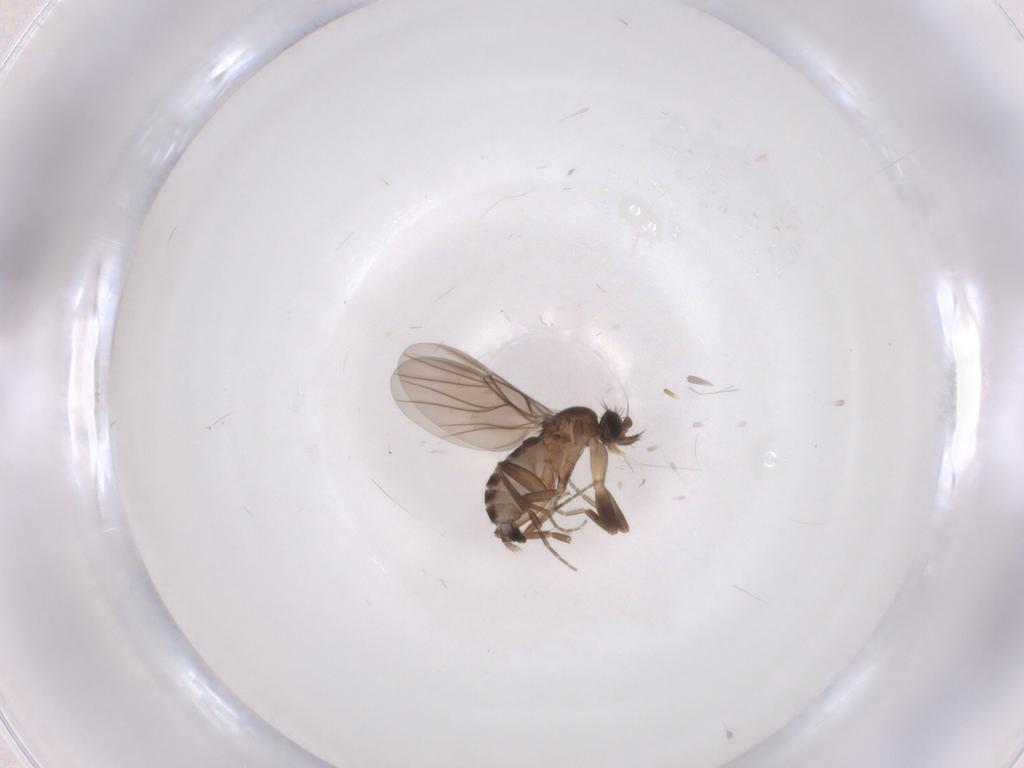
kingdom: Animalia
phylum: Arthropoda
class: Insecta
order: Diptera
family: Phoridae
